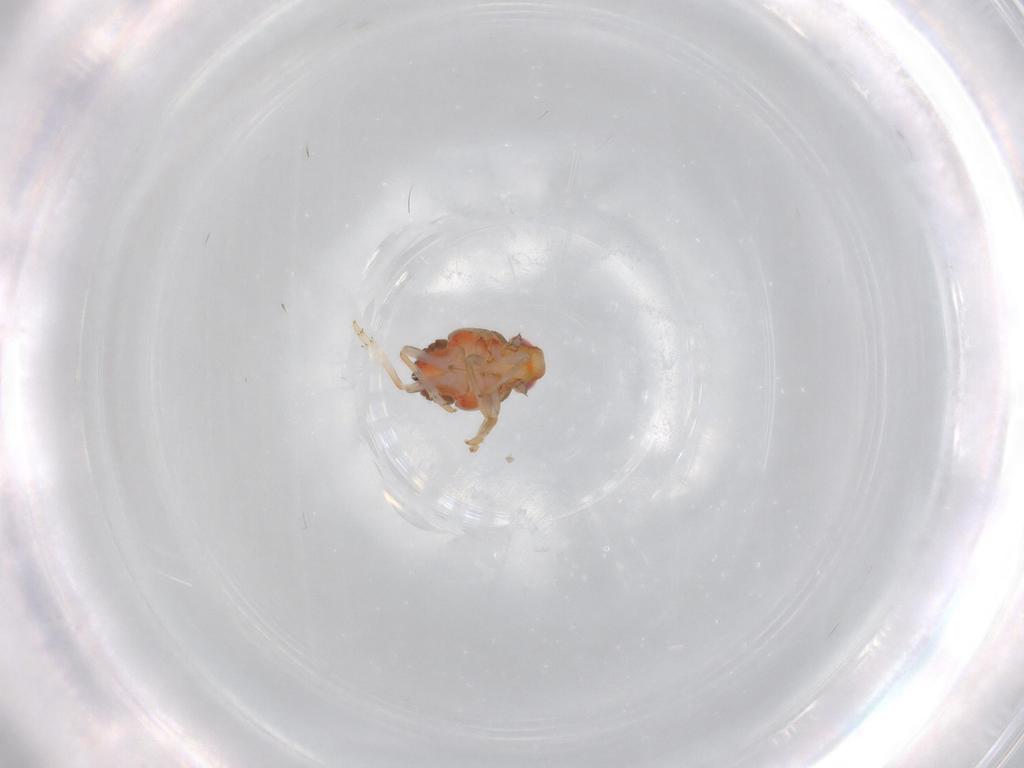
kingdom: Animalia
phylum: Arthropoda
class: Insecta
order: Hemiptera
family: Issidae
